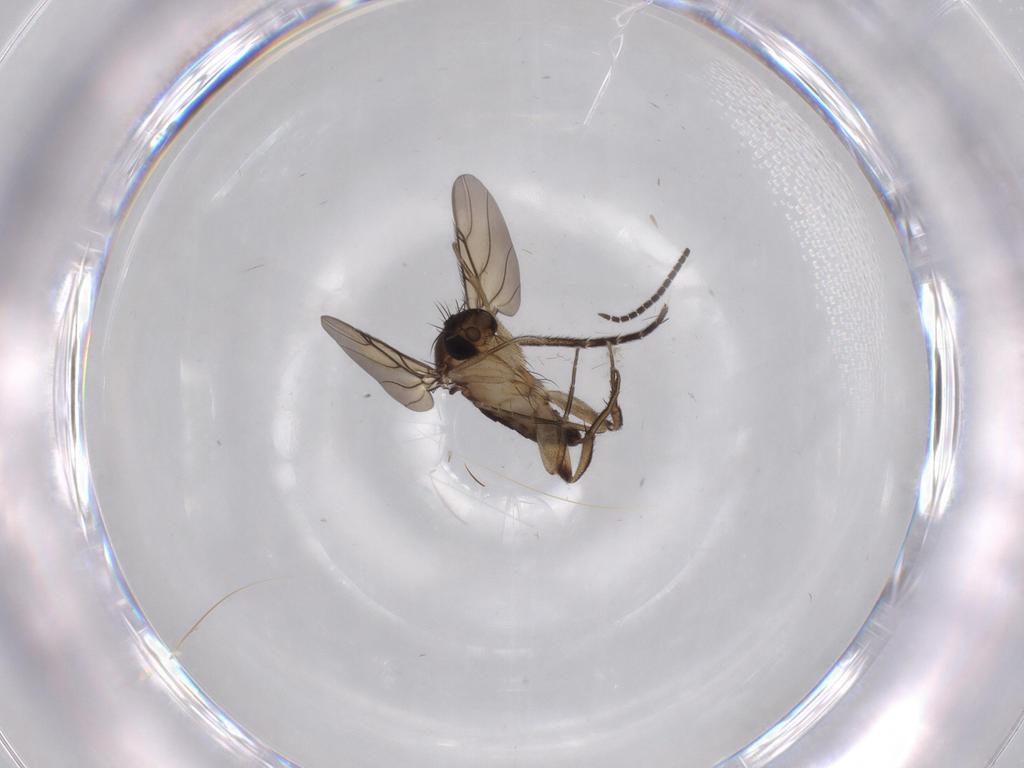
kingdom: Animalia
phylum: Arthropoda
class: Insecta
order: Diptera
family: Sciaridae
